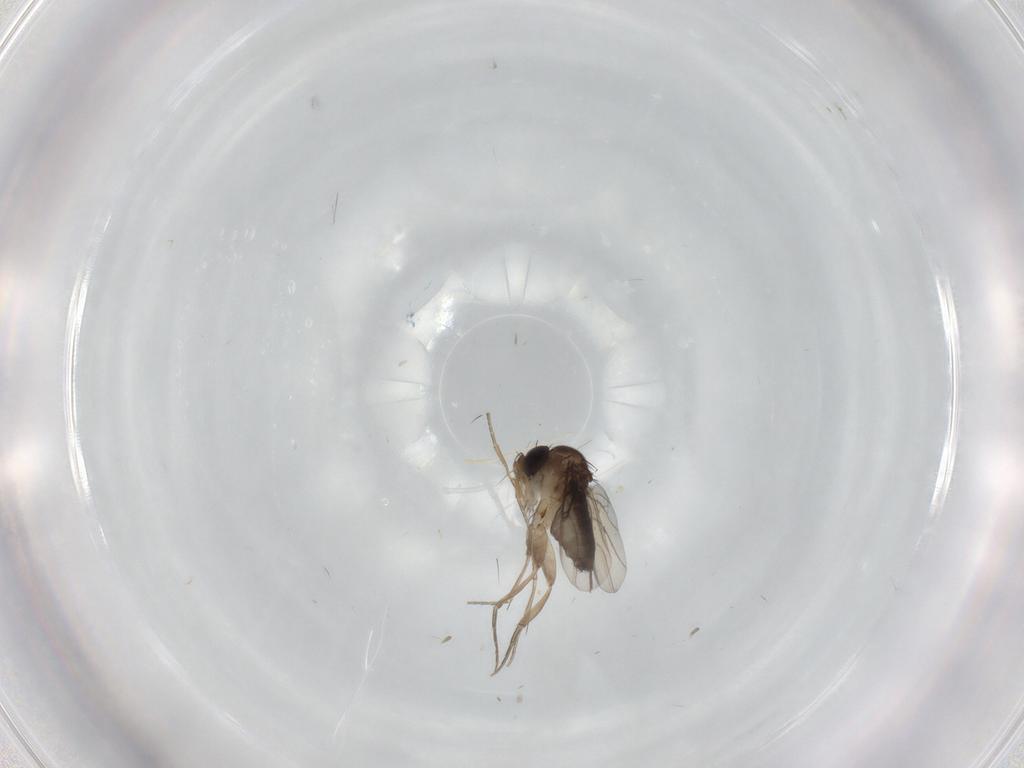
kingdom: Animalia
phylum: Arthropoda
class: Insecta
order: Diptera
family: Phoridae
